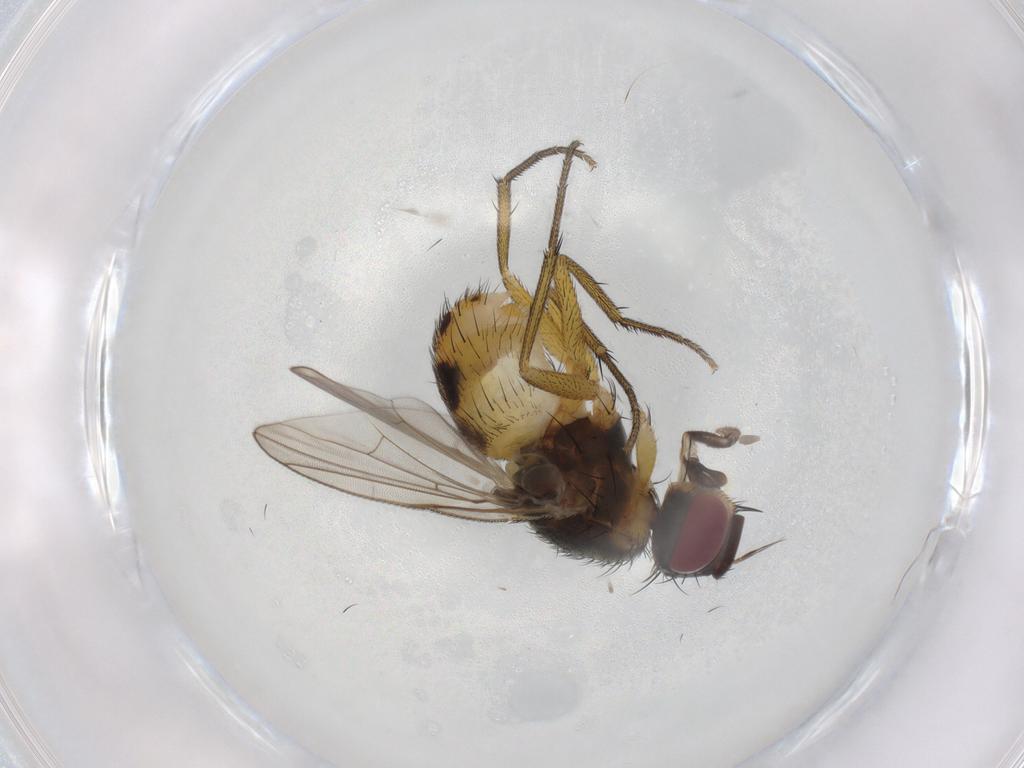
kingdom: Animalia
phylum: Arthropoda
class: Insecta
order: Diptera
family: Muscidae
